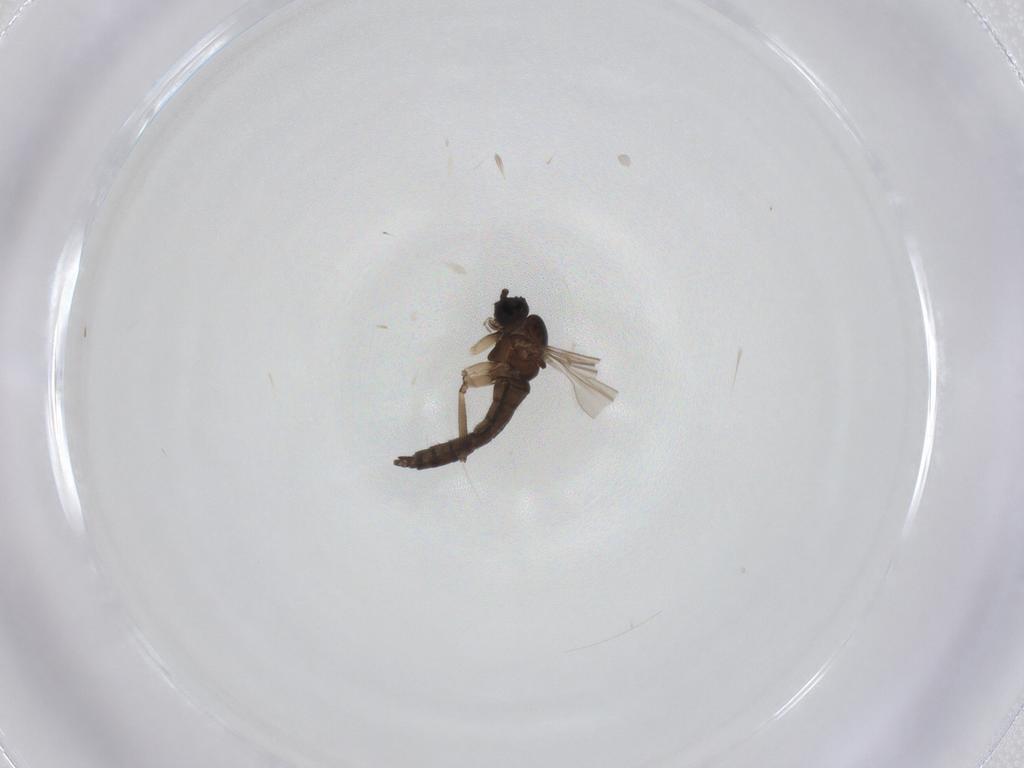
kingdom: Animalia
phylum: Arthropoda
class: Insecta
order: Diptera
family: Sciaridae
